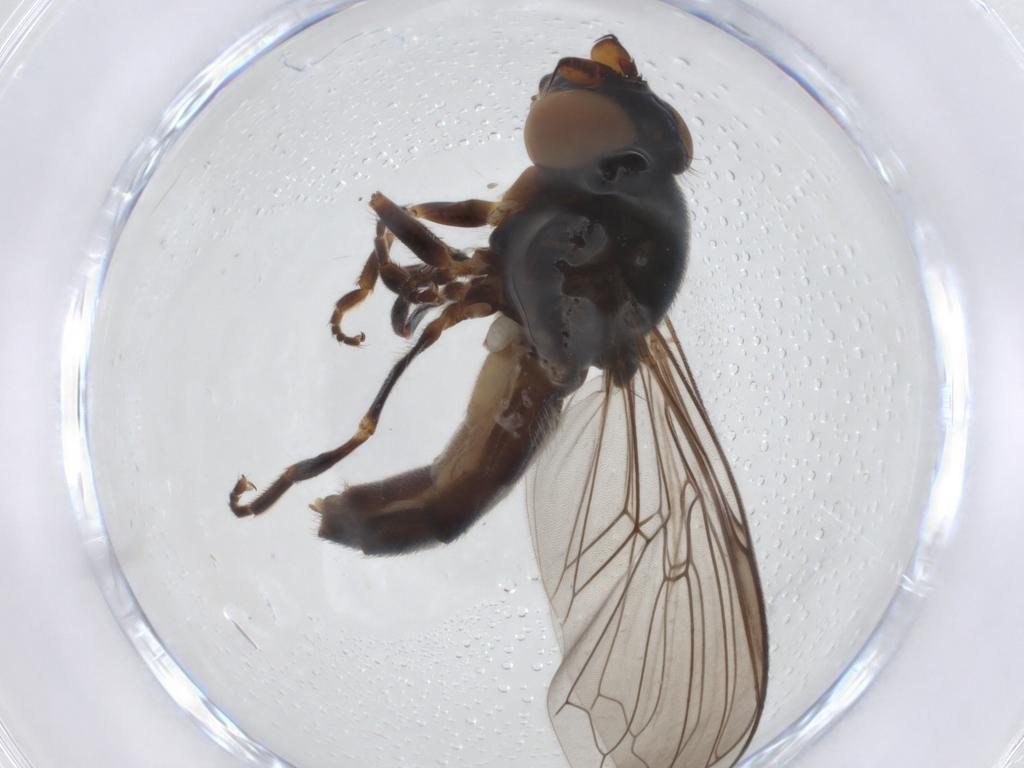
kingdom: Animalia
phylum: Arthropoda
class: Insecta
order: Diptera
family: Syrphidae
